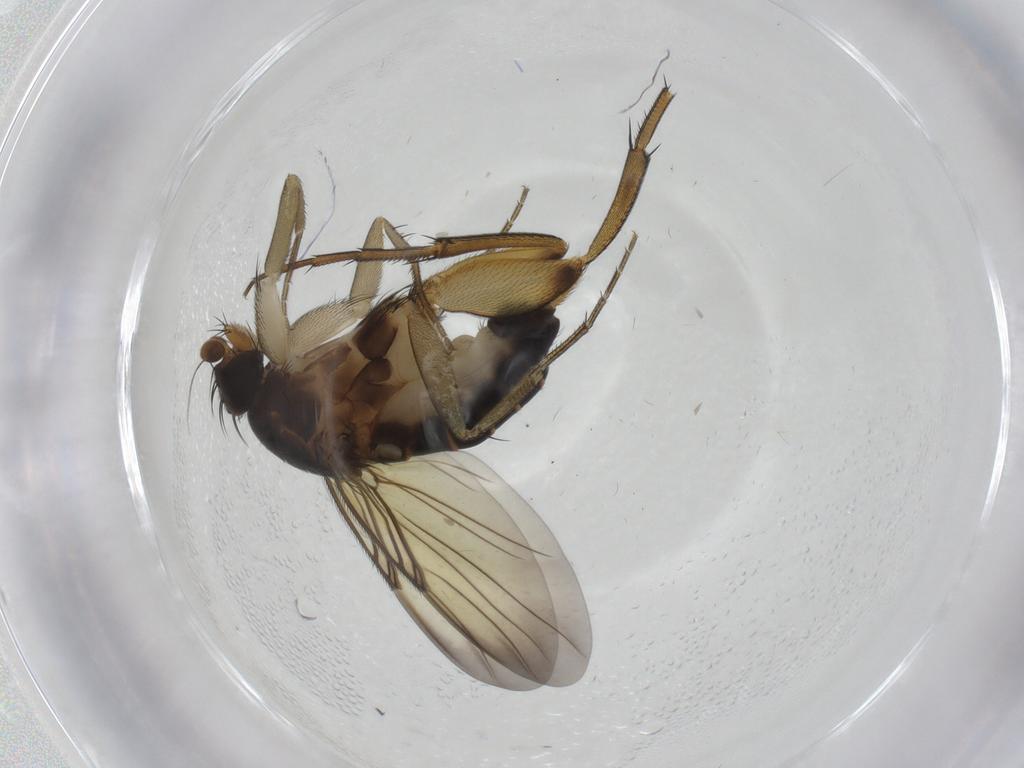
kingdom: Animalia
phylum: Arthropoda
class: Insecta
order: Diptera
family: Phoridae
